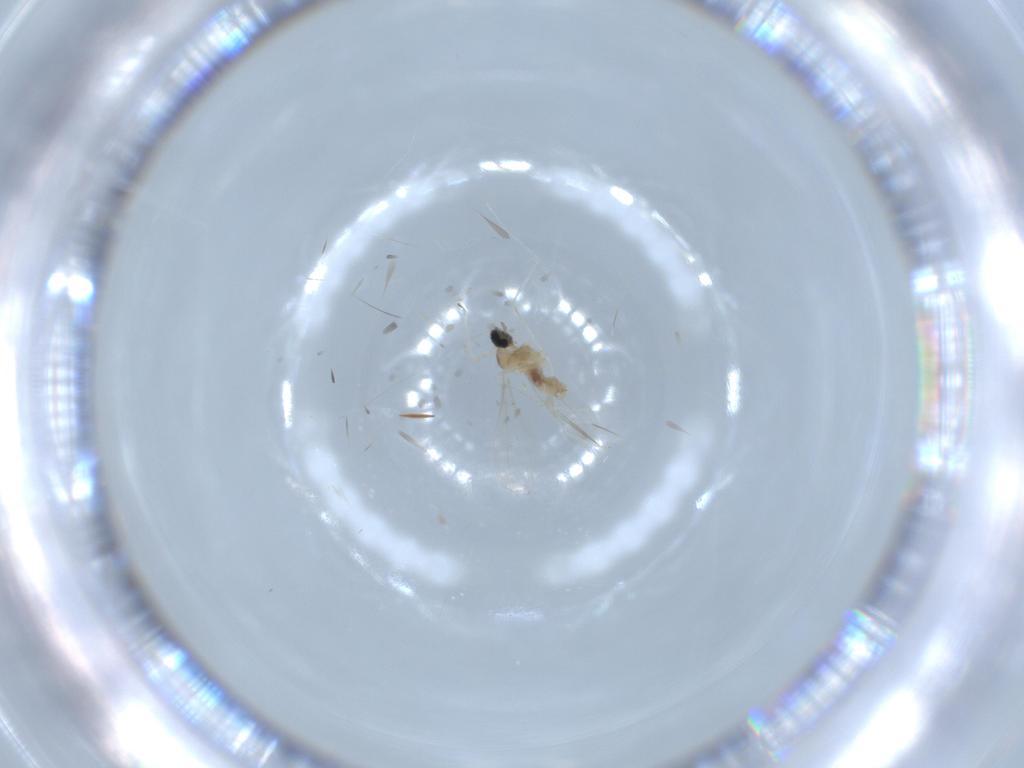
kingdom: Animalia
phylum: Arthropoda
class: Insecta
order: Diptera
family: Cecidomyiidae
